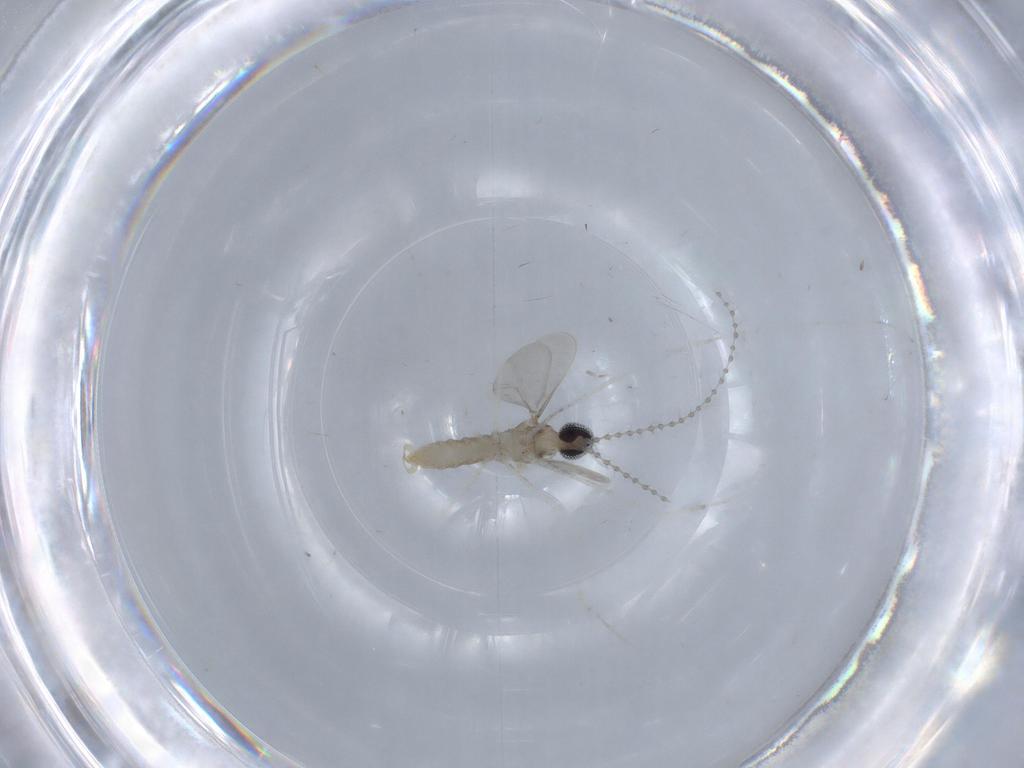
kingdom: Animalia
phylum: Arthropoda
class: Insecta
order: Diptera
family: Cecidomyiidae
